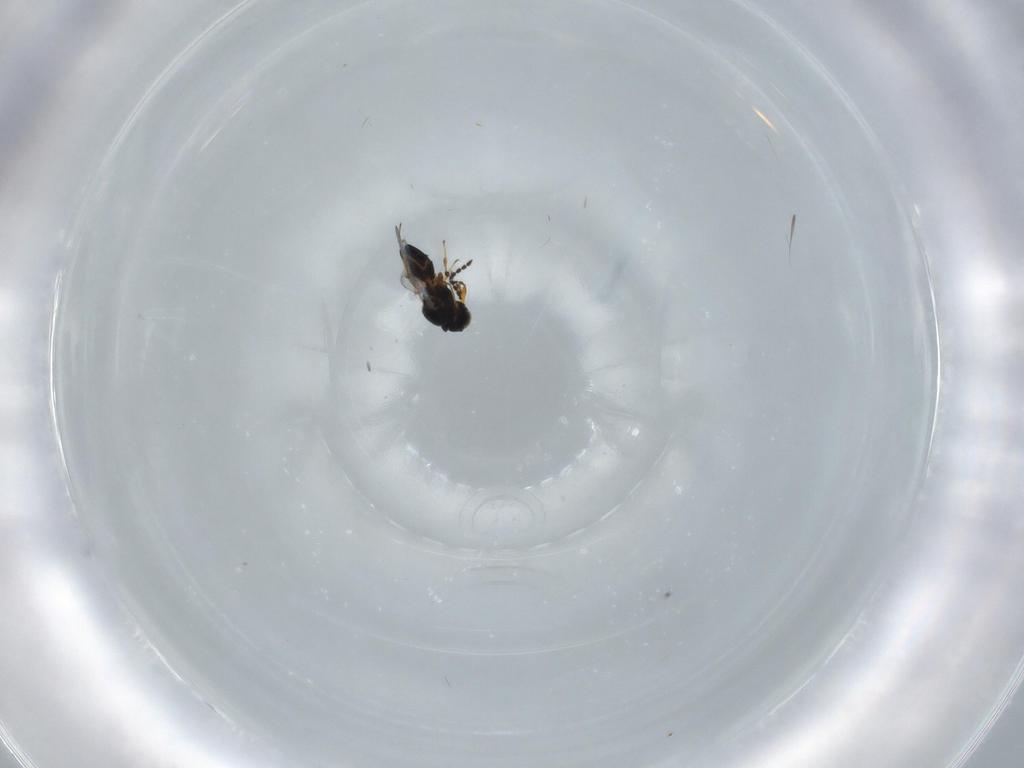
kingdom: Animalia
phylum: Arthropoda
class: Insecta
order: Hymenoptera
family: Platygastridae
